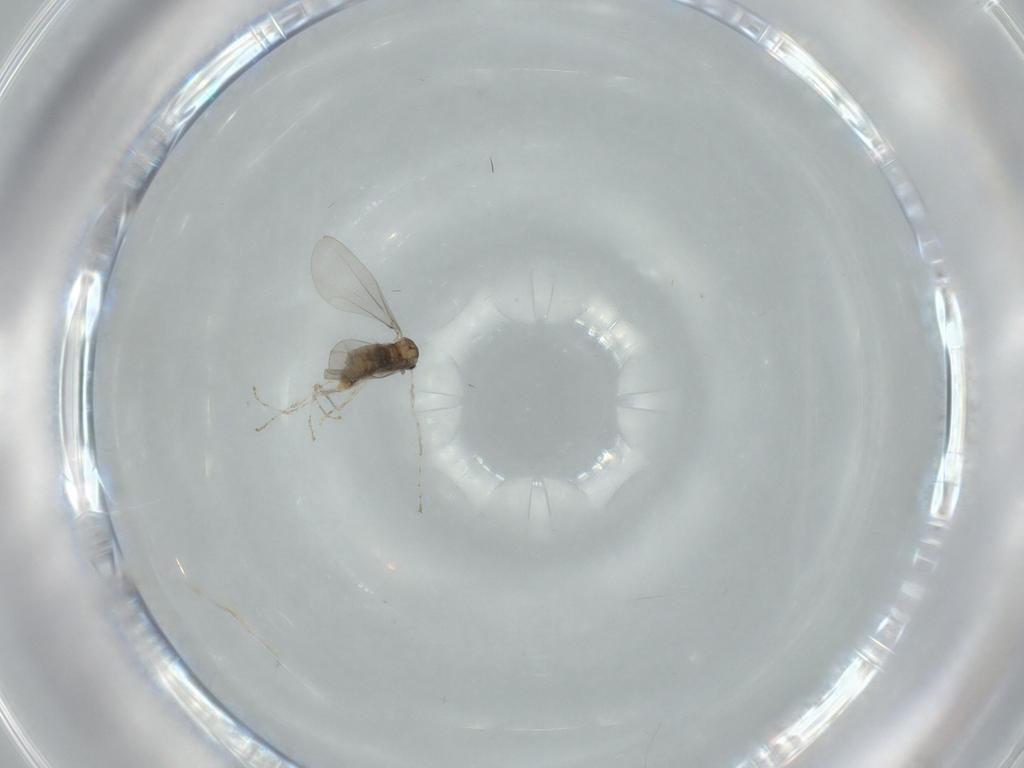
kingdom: Animalia
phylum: Arthropoda
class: Insecta
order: Diptera
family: Cecidomyiidae
